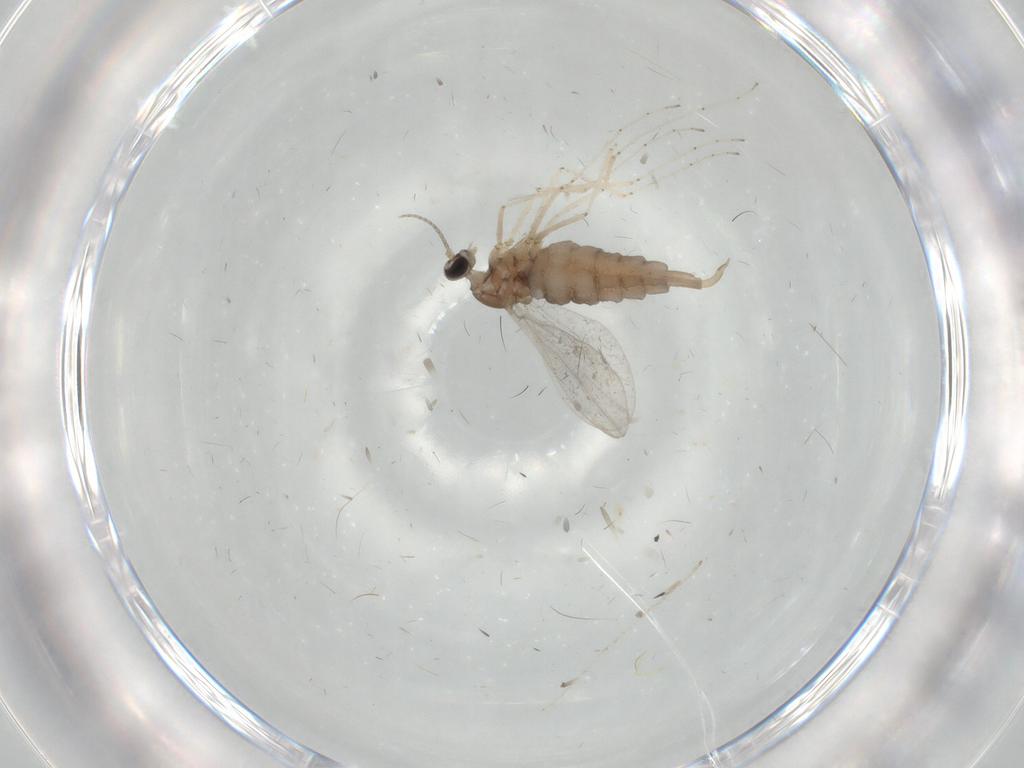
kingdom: Animalia
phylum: Arthropoda
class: Insecta
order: Diptera
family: Cecidomyiidae
